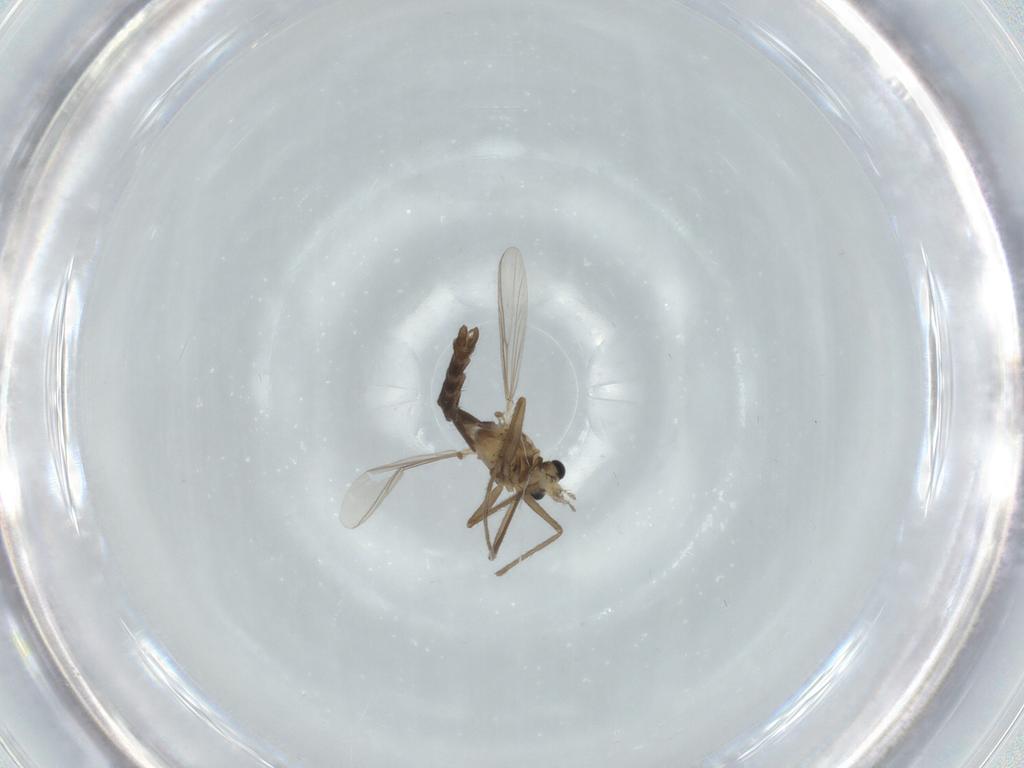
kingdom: Animalia
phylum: Arthropoda
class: Insecta
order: Diptera
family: Chironomidae
